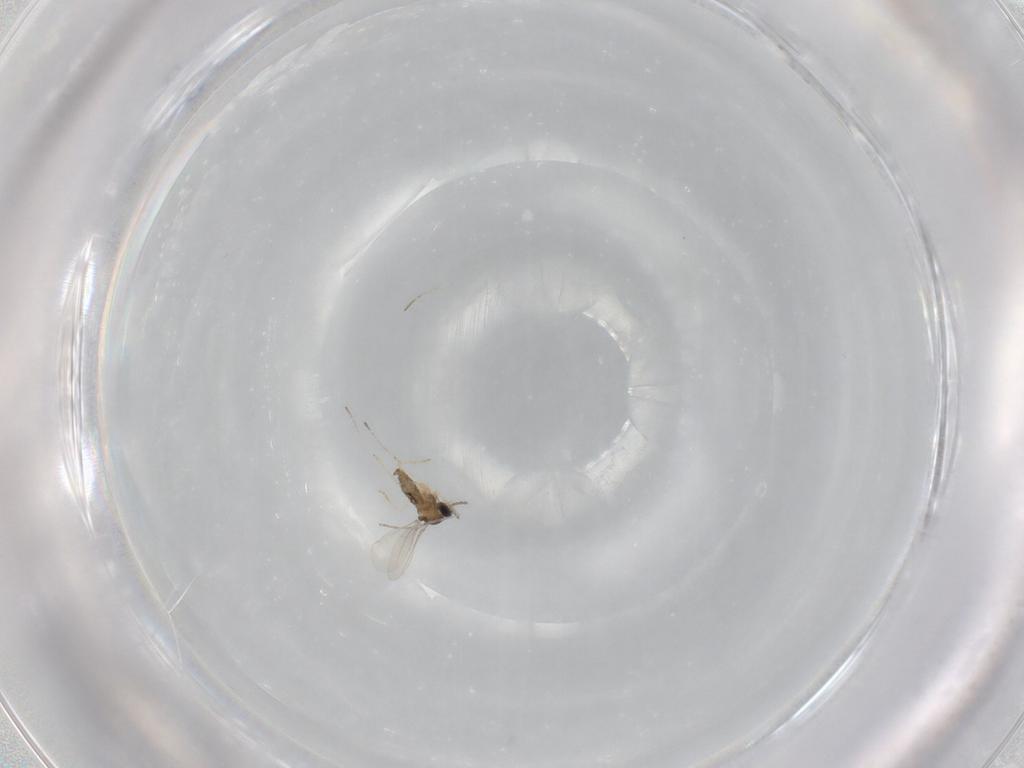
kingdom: Animalia
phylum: Arthropoda
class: Insecta
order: Diptera
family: Cecidomyiidae
